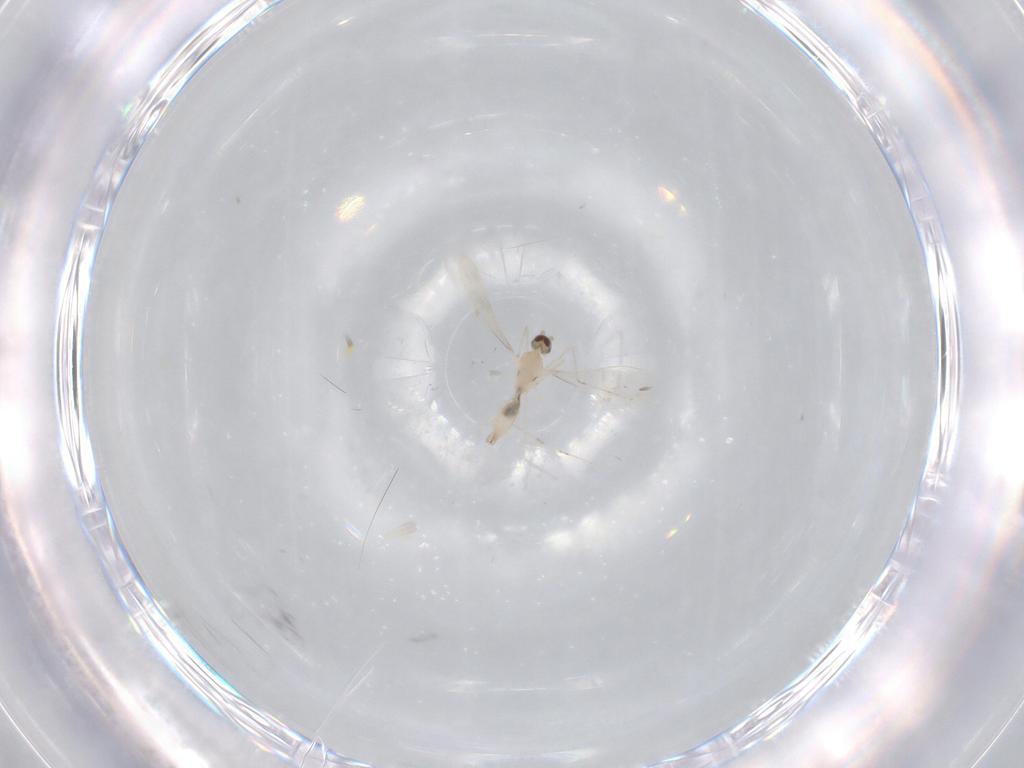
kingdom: Animalia
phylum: Arthropoda
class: Insecta
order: Diptera
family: Cecidomyiidae
